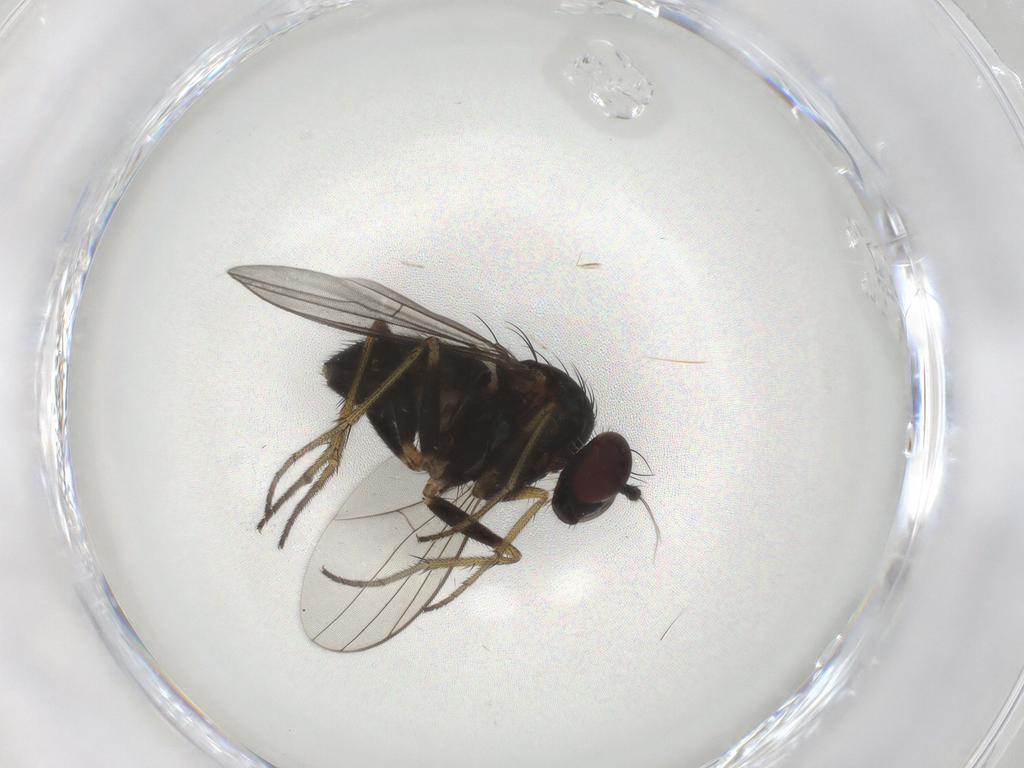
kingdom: Animalia
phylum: Arthropoda
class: Insecta
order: Diptera
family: Dolichopodidae
